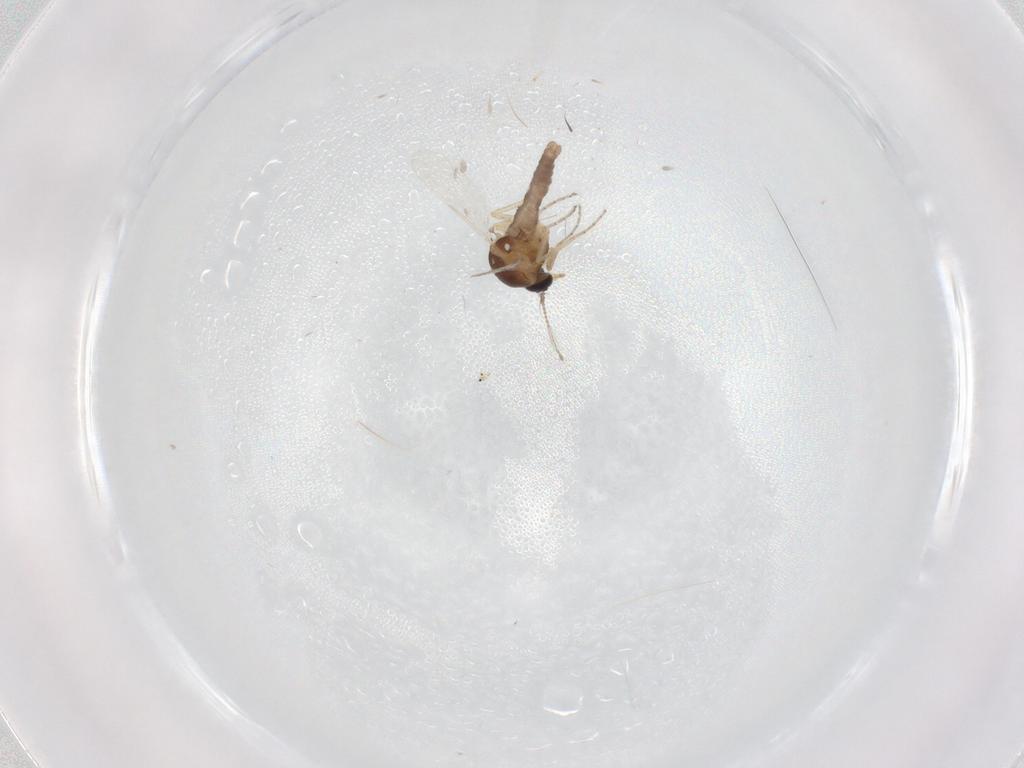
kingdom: Animalia
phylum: Arthropoda
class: Insecta
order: Diptera
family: Ceratopogonidae
